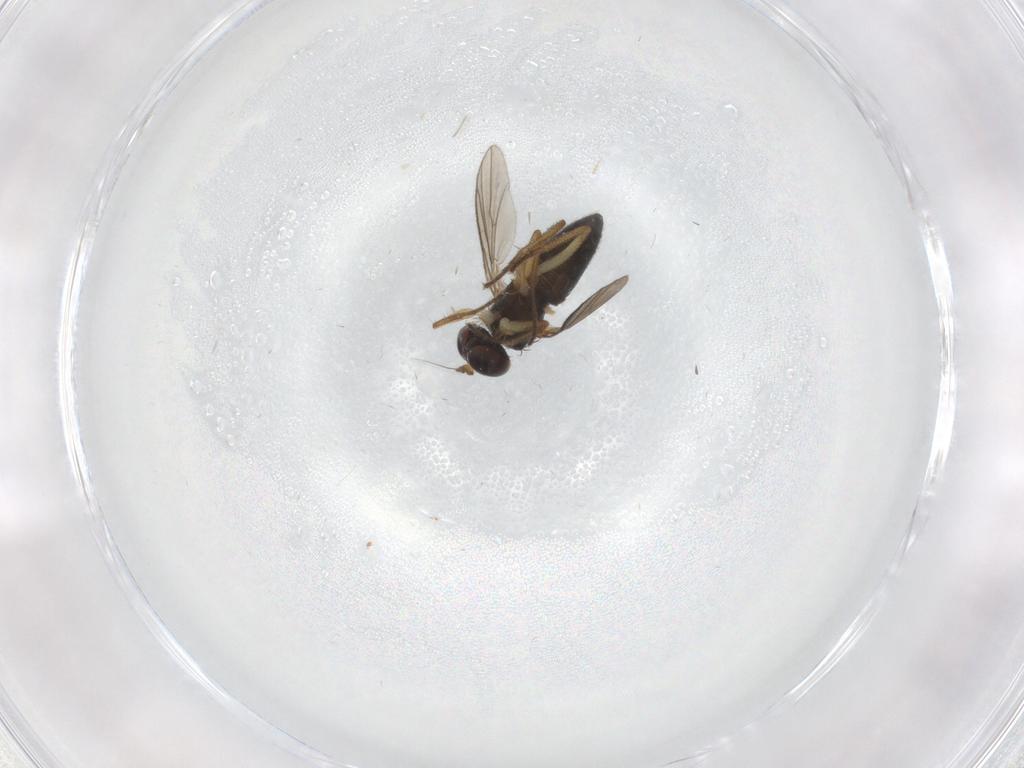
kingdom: Animalia
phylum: Arthropoda
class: Insecta
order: Diptera
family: Dolichopodidae
